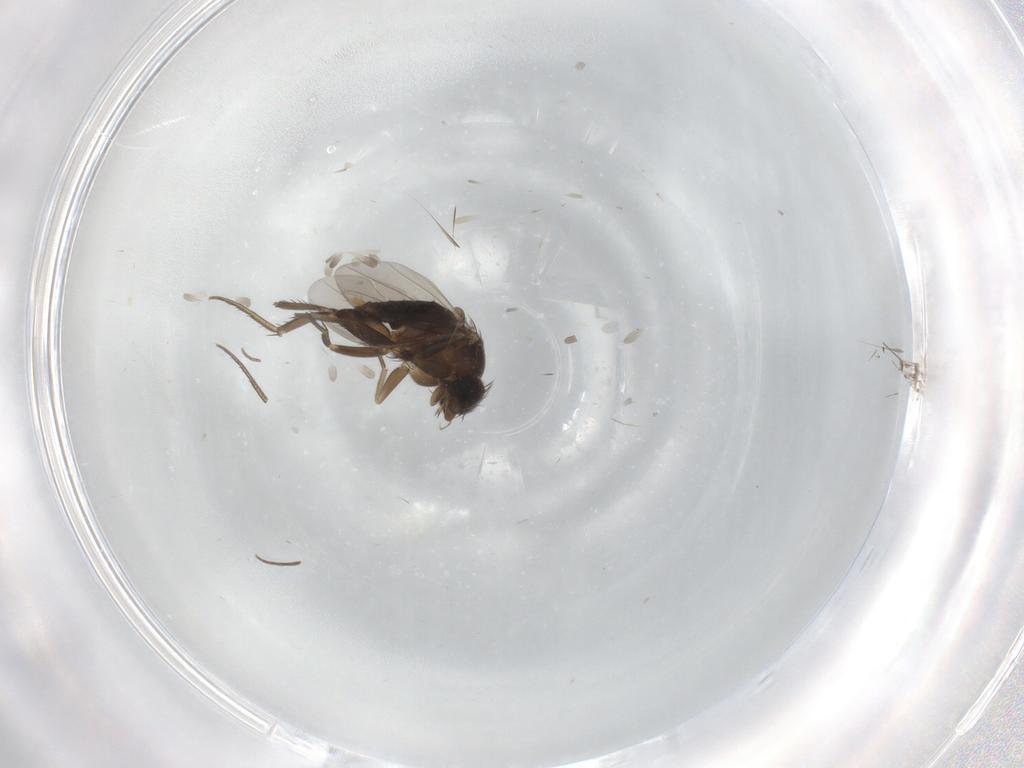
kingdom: Animalia
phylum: Arthropoda
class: Insecta
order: Diptera
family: Phoridae
